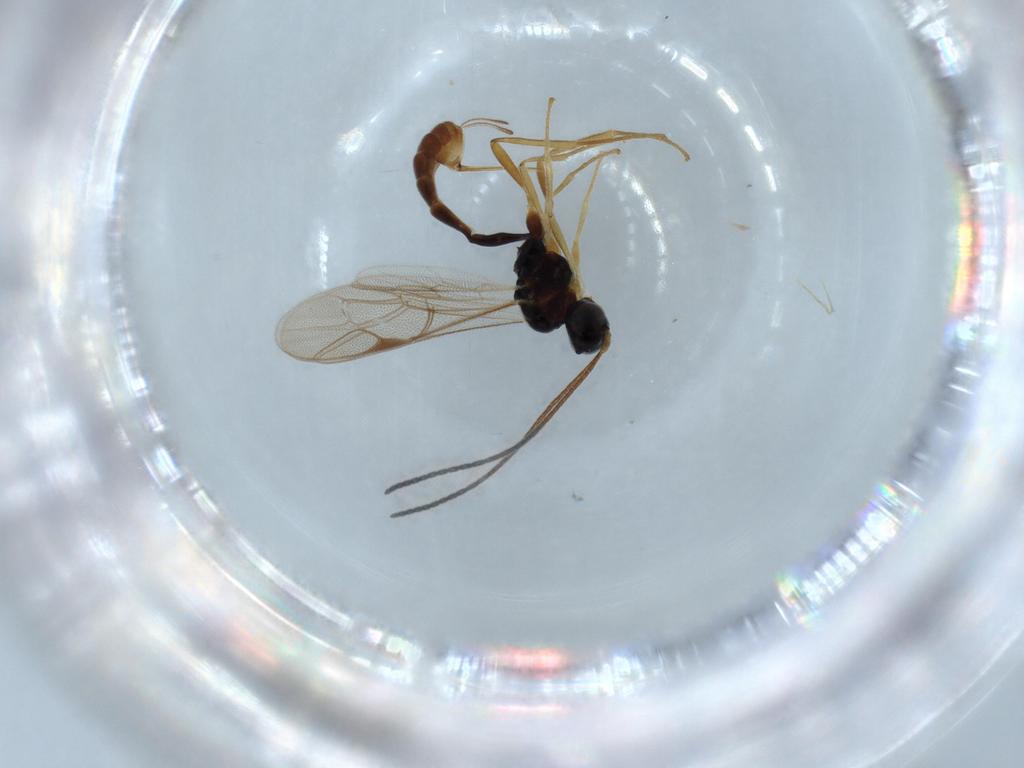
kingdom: Animalia
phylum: Arthropoda
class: Insecta
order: Hymenoptera
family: Ichneumonidae
